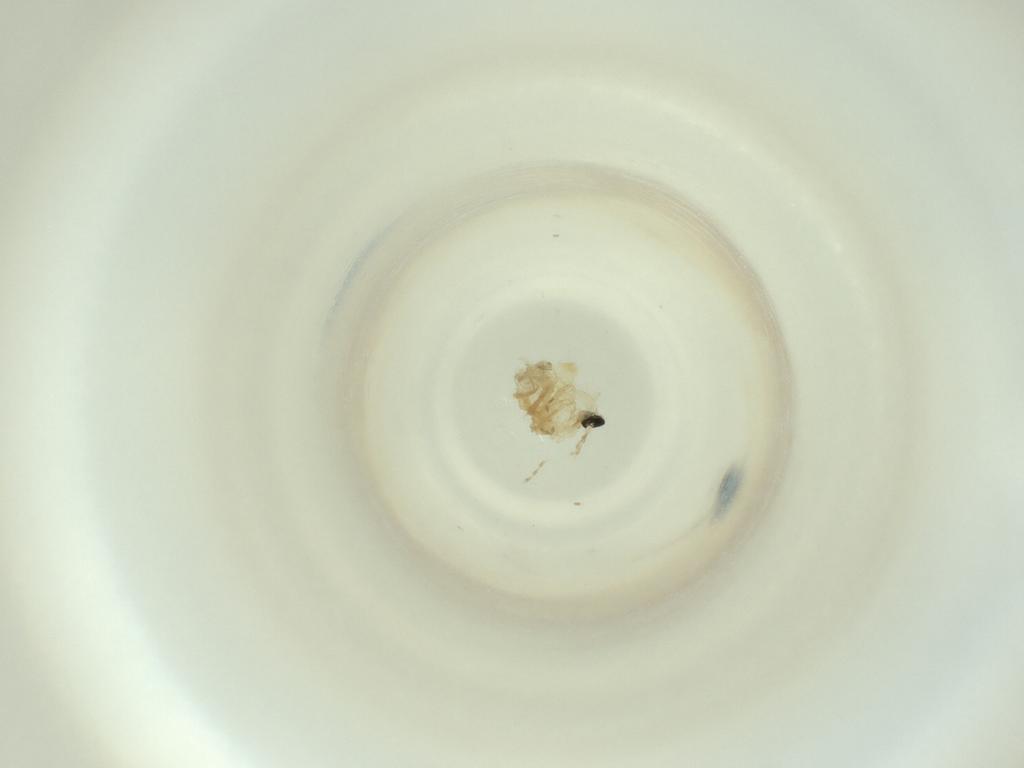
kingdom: Animalia
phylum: Arthropoda
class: Insecta
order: Diptera
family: Cecidomyiidae
